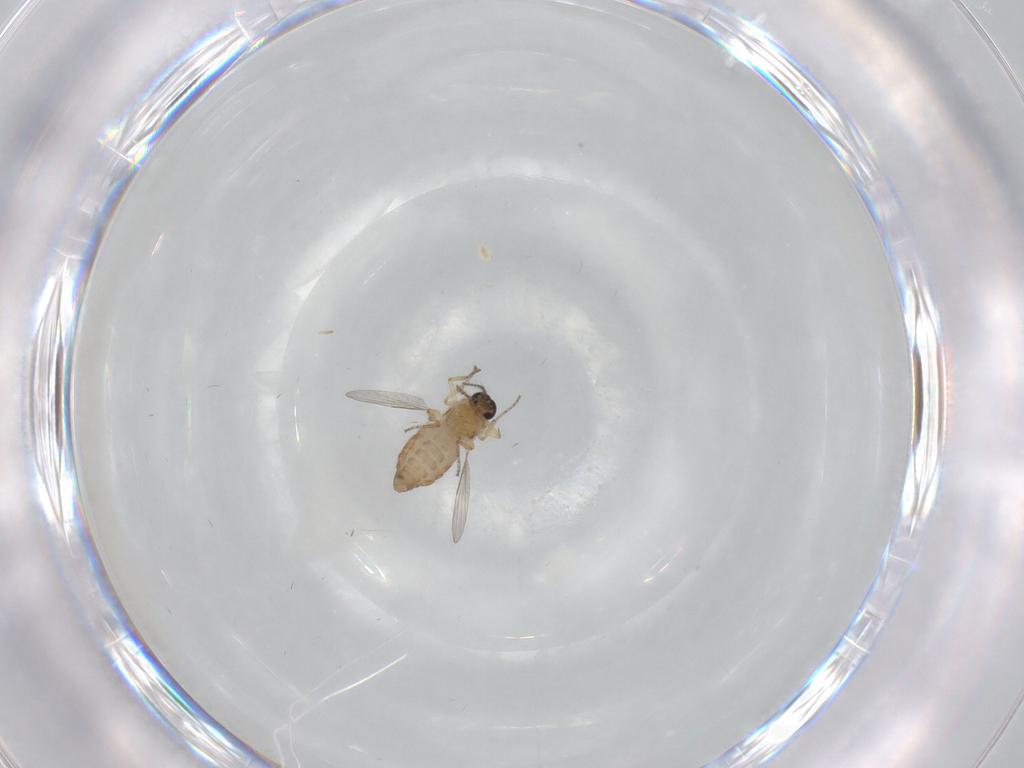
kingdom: Animalia
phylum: Arthropoda
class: Insecta
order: Diptera
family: Ceratopogonidae
